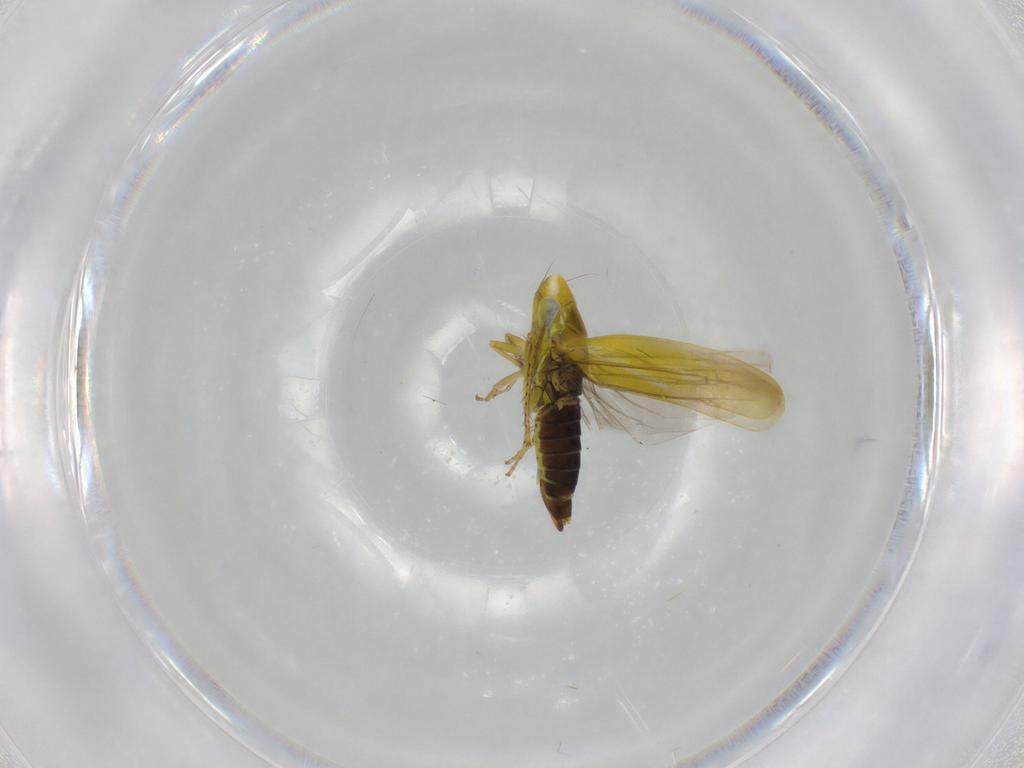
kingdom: Animalia
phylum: Arthropoda
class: Insecta
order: Hemiptera
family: Cicadellidae
